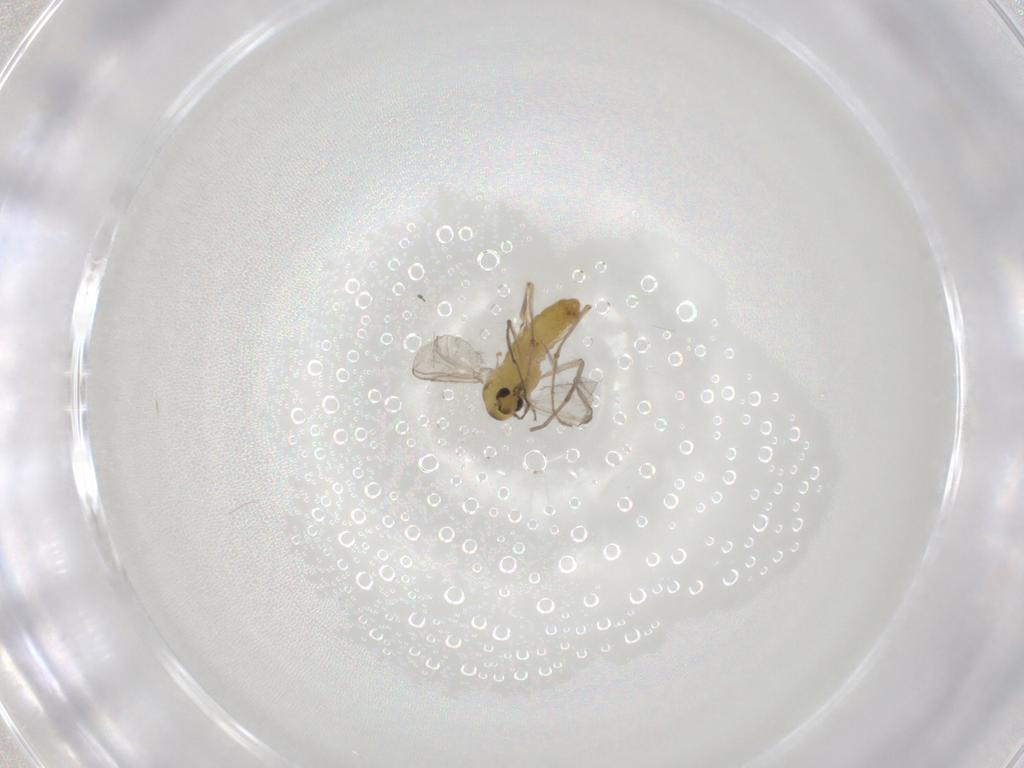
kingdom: Animalia
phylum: Arthropoda
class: Insecta
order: Diptera
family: Chironomidae
